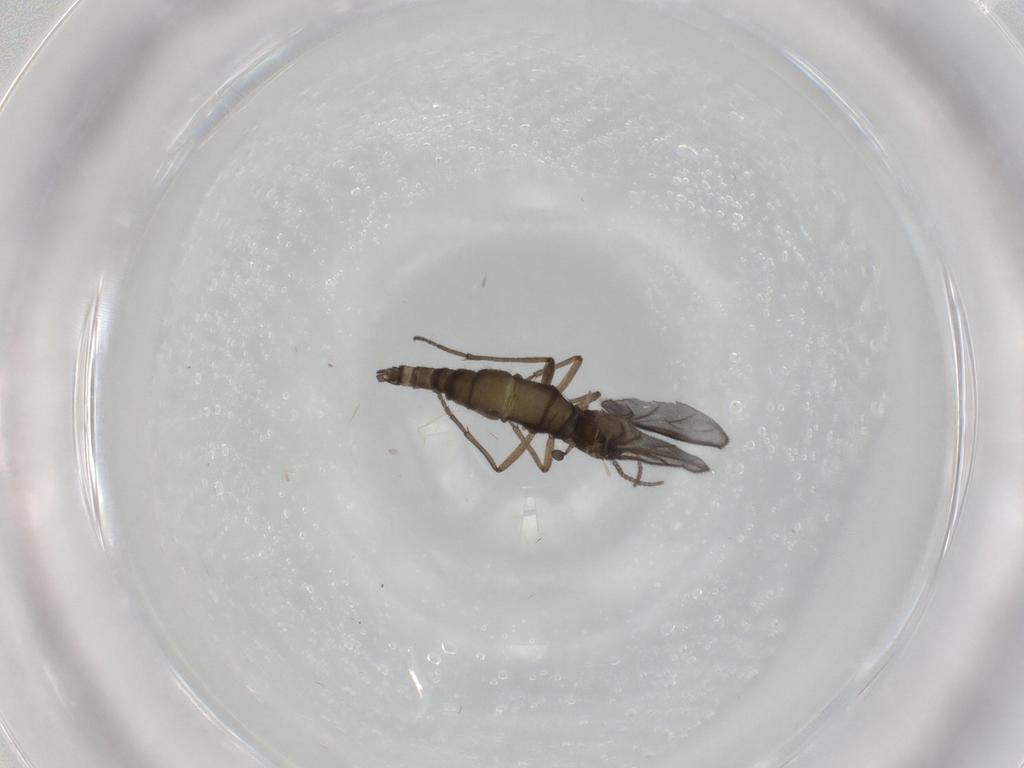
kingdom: Animalia
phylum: Arthropoda
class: Insecta
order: Diptera
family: Sciaridae
